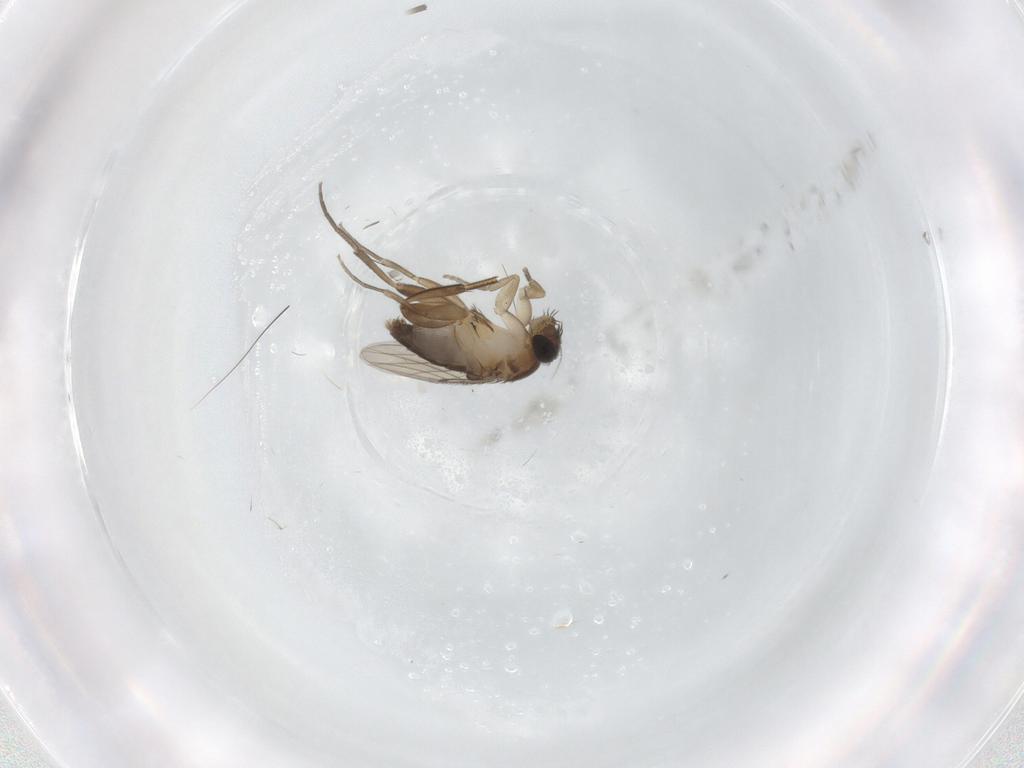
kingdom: Animalia
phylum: Arthropoda
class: Insecta
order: Diptera
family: Phoridae
